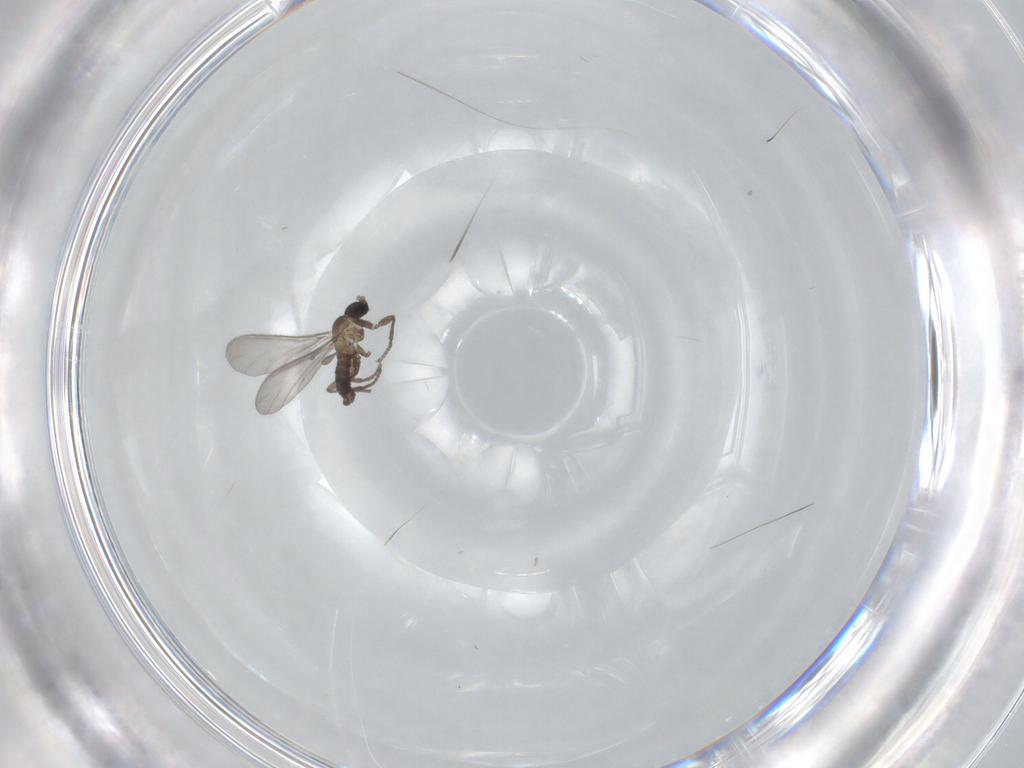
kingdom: Animalia
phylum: Arthropoda
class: Insecta
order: Diptera
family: Sciaridae
